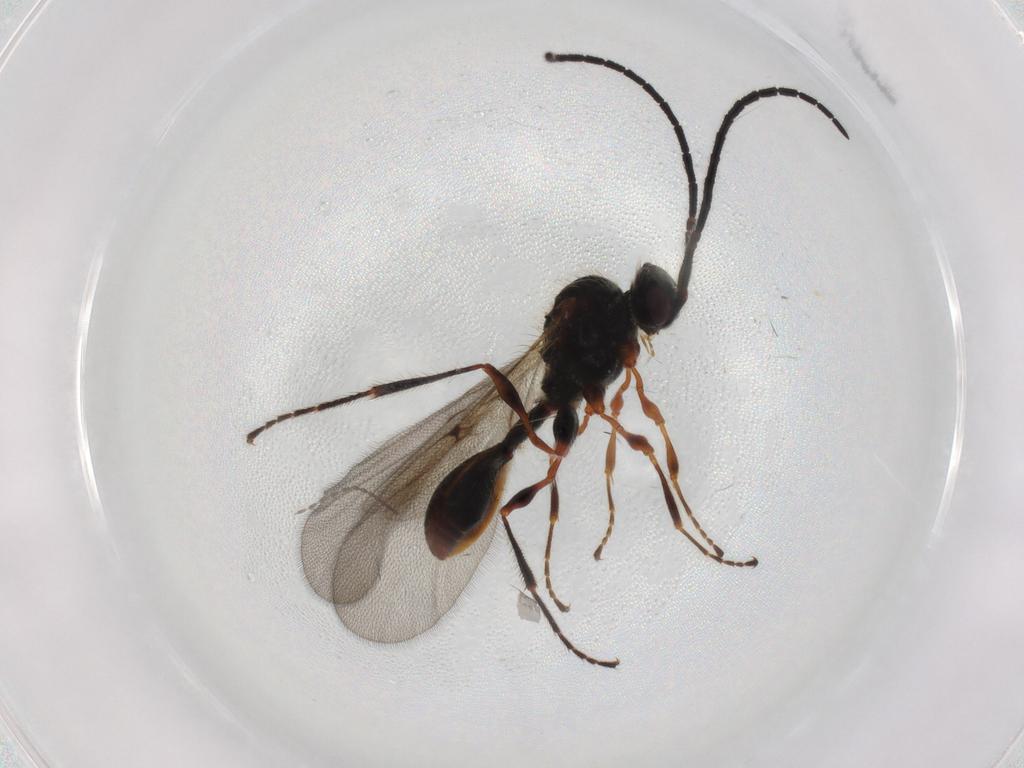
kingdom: Animalia
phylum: Arthropoda
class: Insecta
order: Hymenoptera
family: Diapriidae
